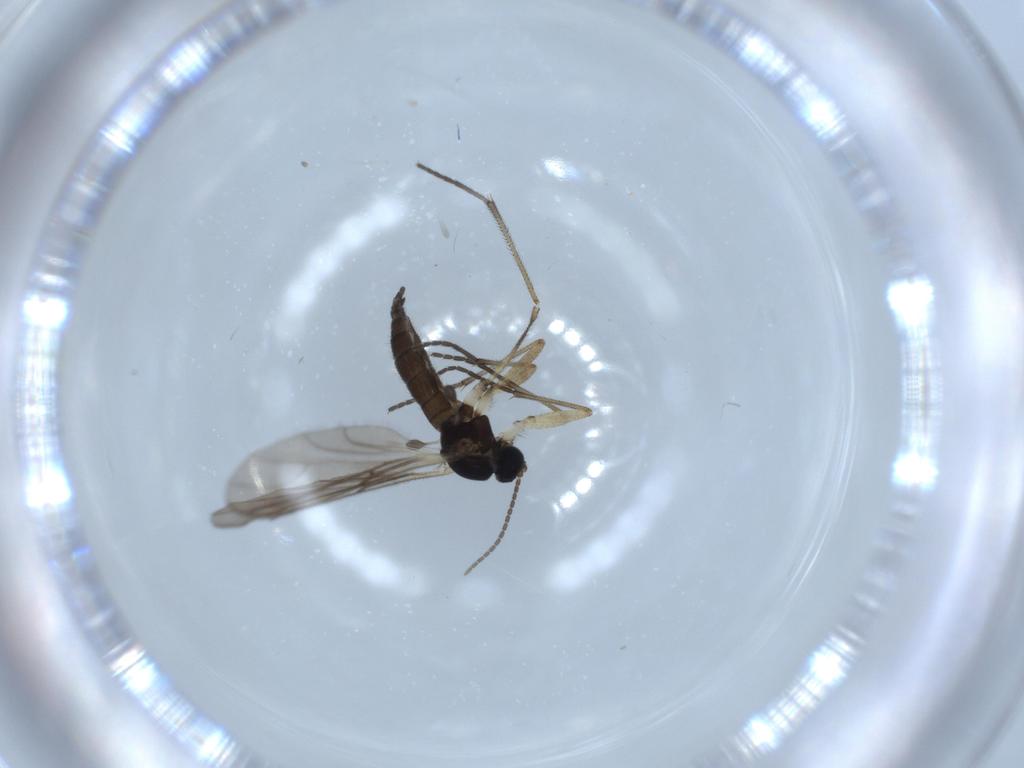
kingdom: Animalia
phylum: Arthropoda
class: Insecta
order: Diptera
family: Sciaridae
